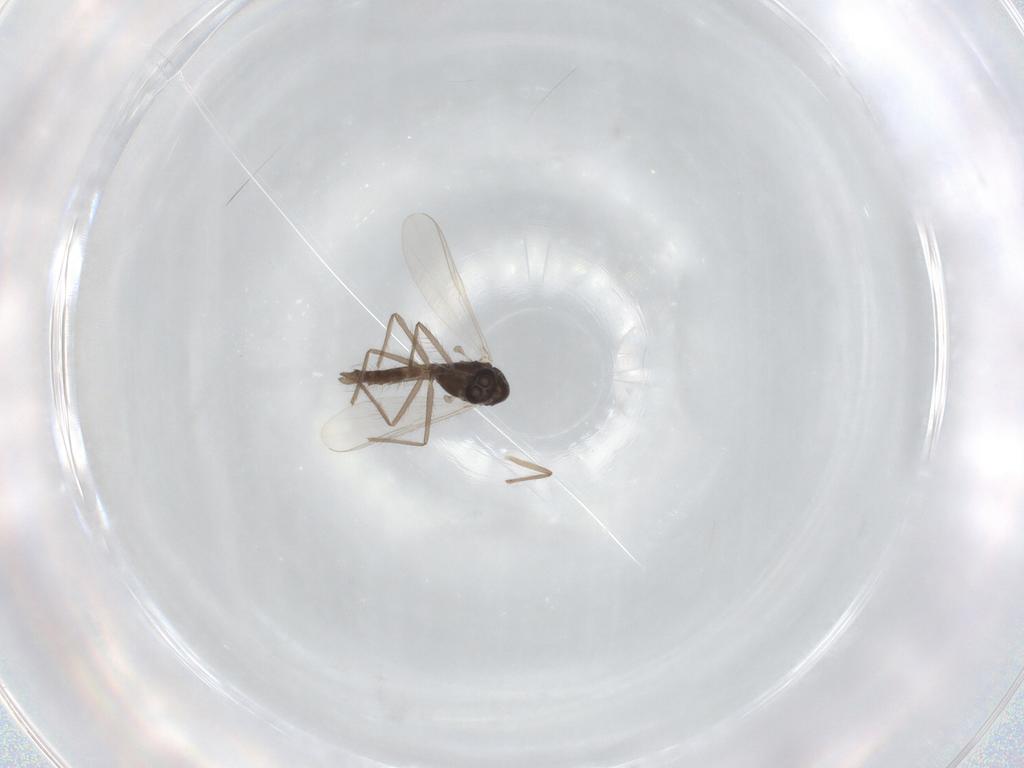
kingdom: Animalia
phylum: Arthropoda
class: Insecta
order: Diptera
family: Chironomidae
